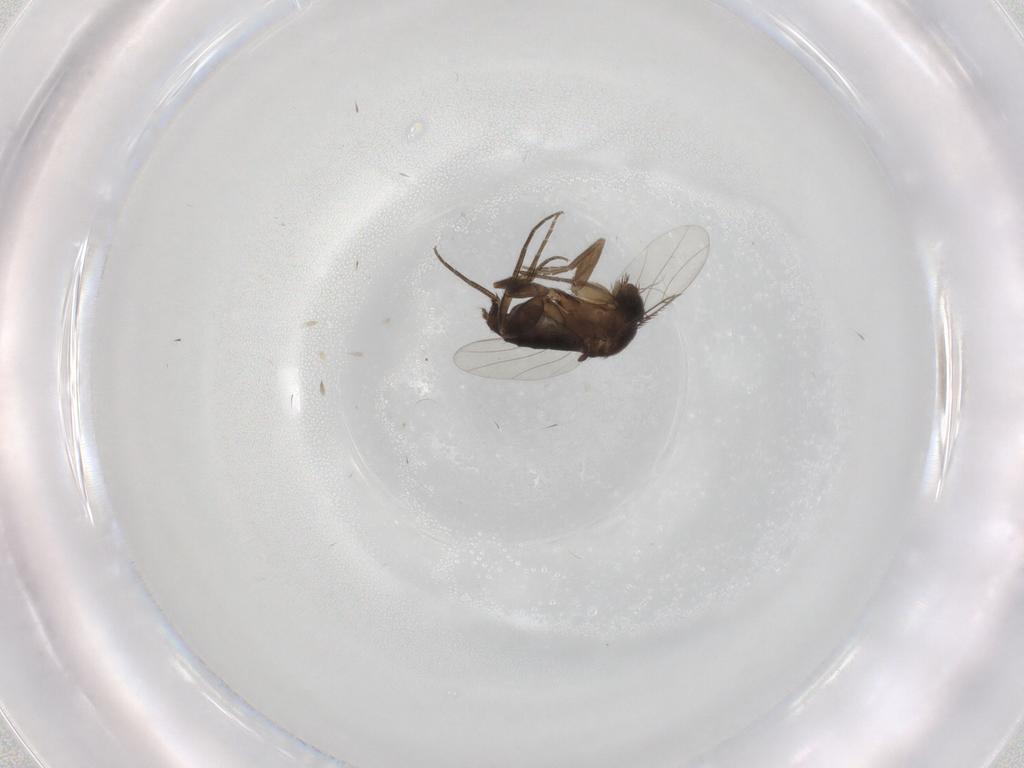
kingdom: Animalia
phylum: Arthropoda
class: Insecta
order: Diptera
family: Phoridae
